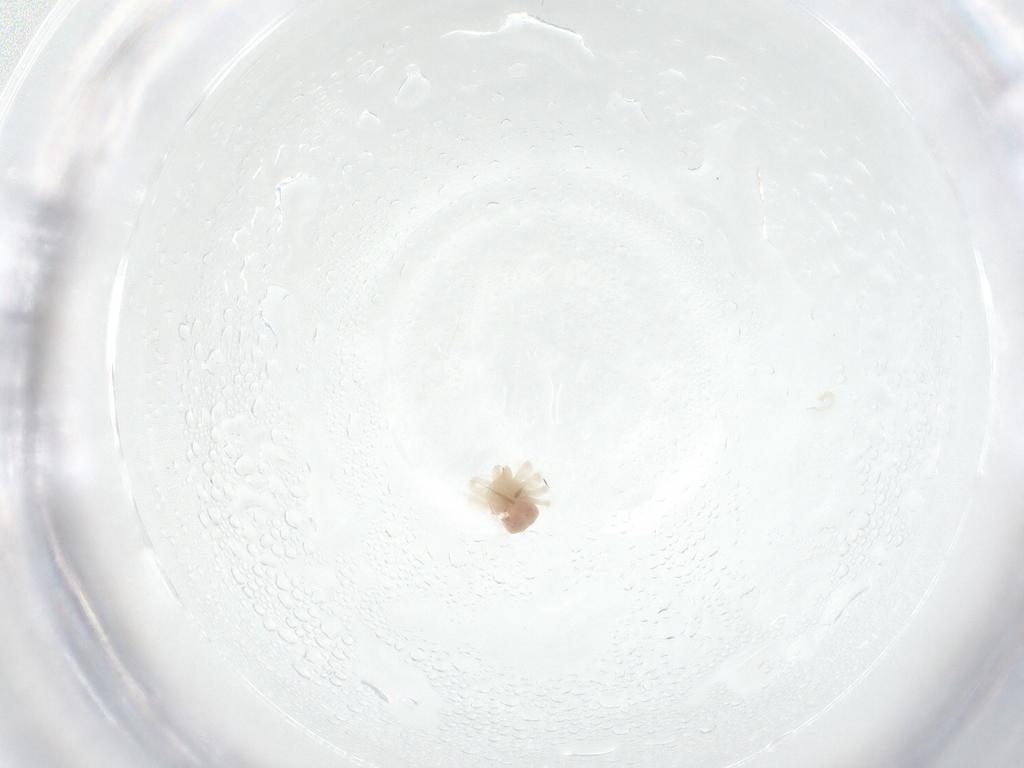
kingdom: Animalia
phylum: Arthropoda
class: Arachnida
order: Trombidiformes
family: Anystidae
